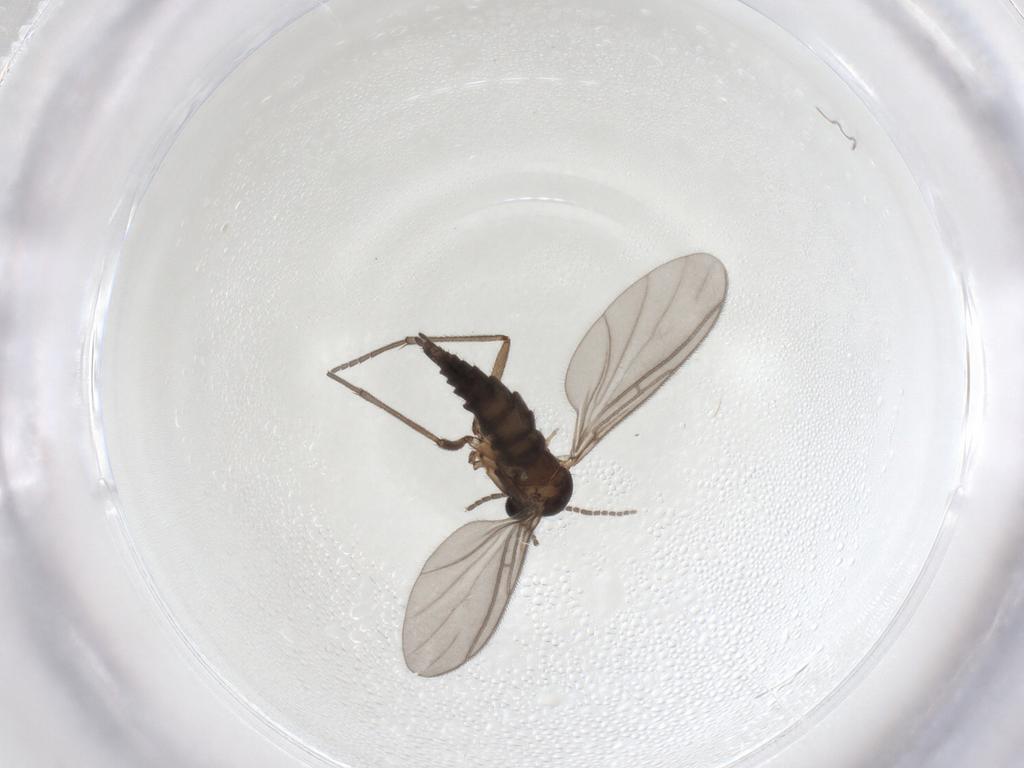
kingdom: Animalia
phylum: Arthropoda
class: Insecta
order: Diptera
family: Sciaridae
